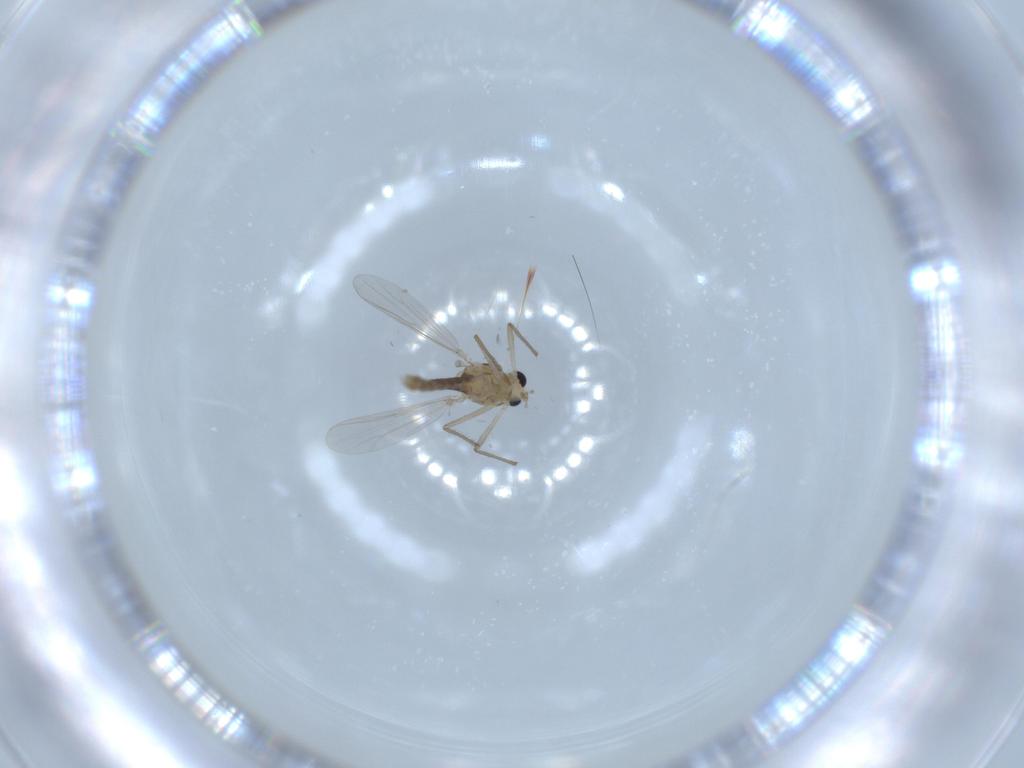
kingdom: Animalia
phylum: Arthropoda
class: Insecta
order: Diptera
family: Chironomidae
